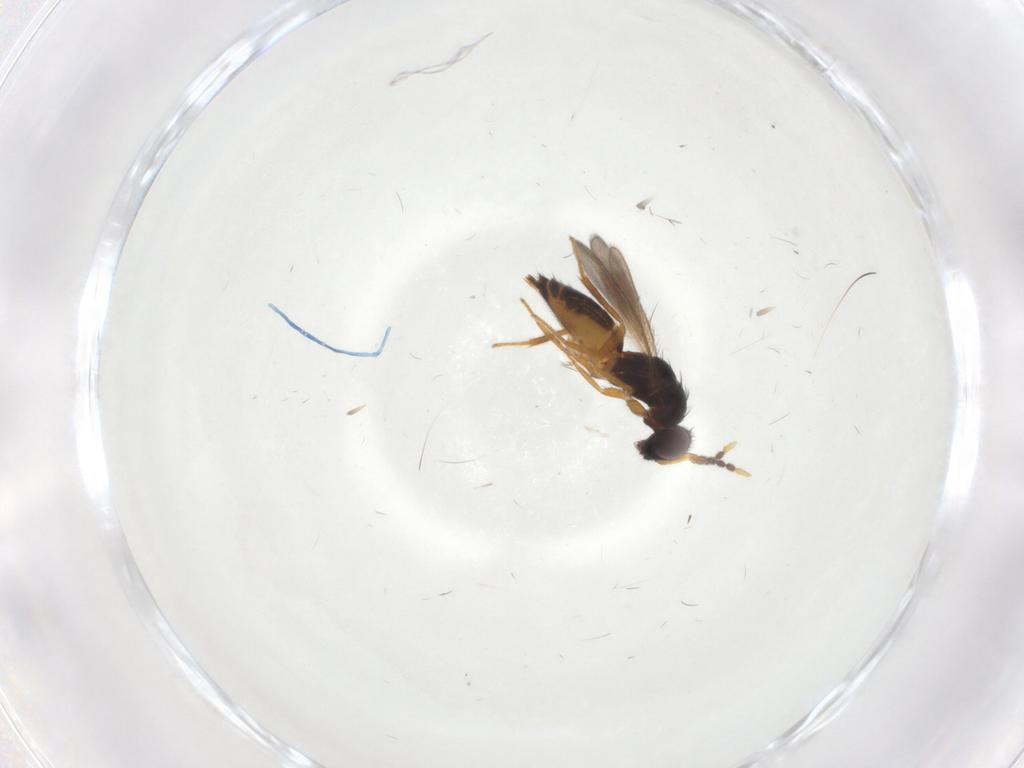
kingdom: Animalia
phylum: Arthropoda
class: Insecta
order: Hymenoptera
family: Eulophidae
